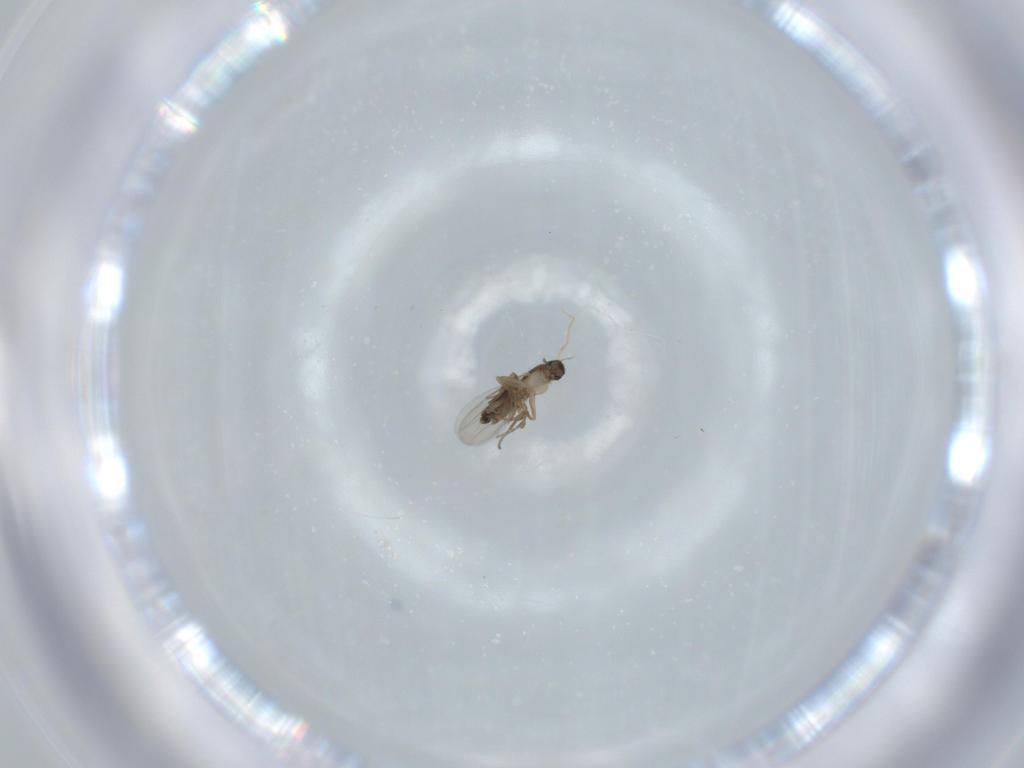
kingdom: Animalia
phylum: Arthropoda
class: Insecta
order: Diptera
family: Phoridae
